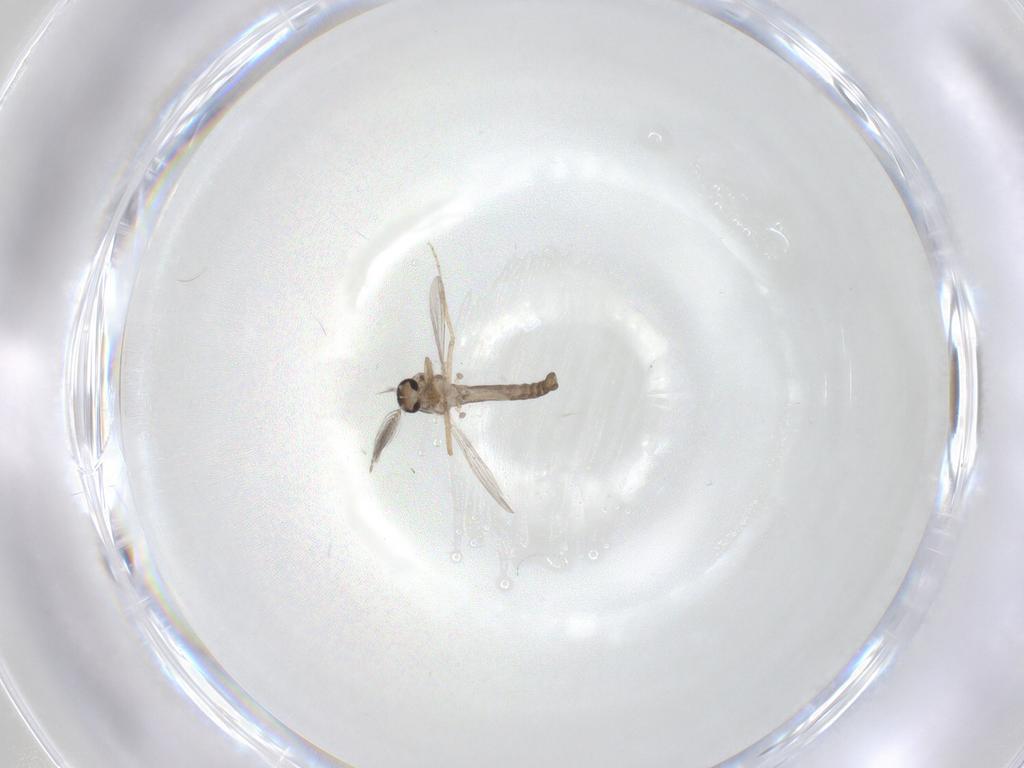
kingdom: Animalia
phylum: Arthropoda
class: Insecta
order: Diptera
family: Ceratopogonidae
